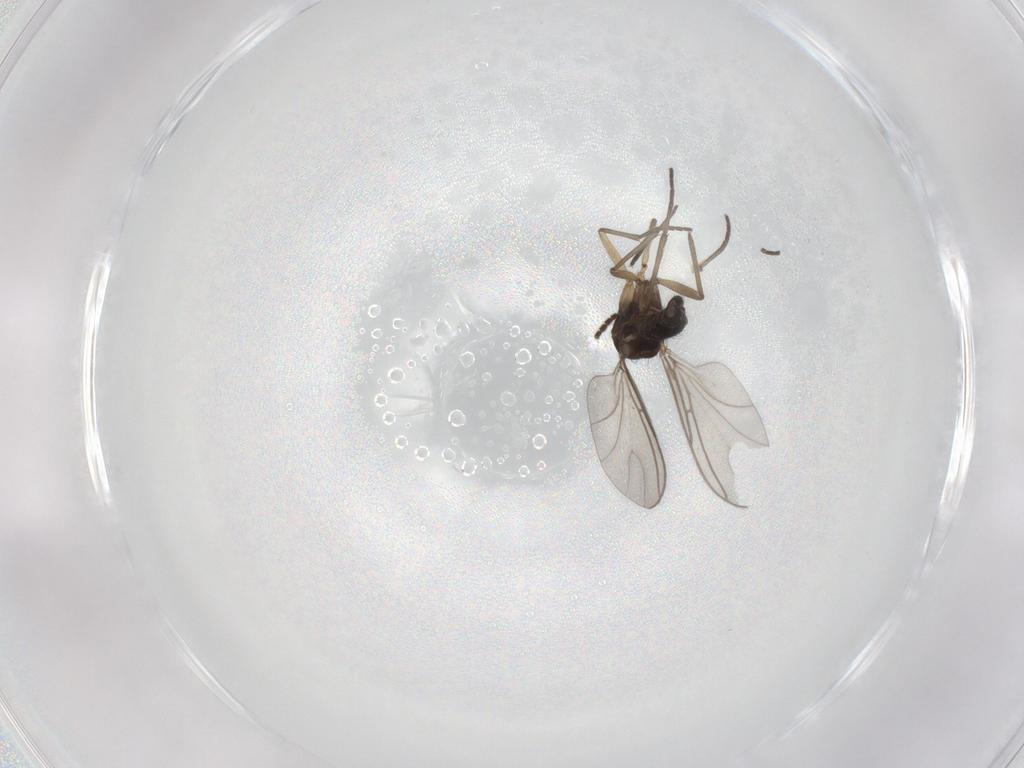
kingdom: Animalia
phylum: Arthropoda
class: Insecta
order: Diptera
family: Sciaridae
